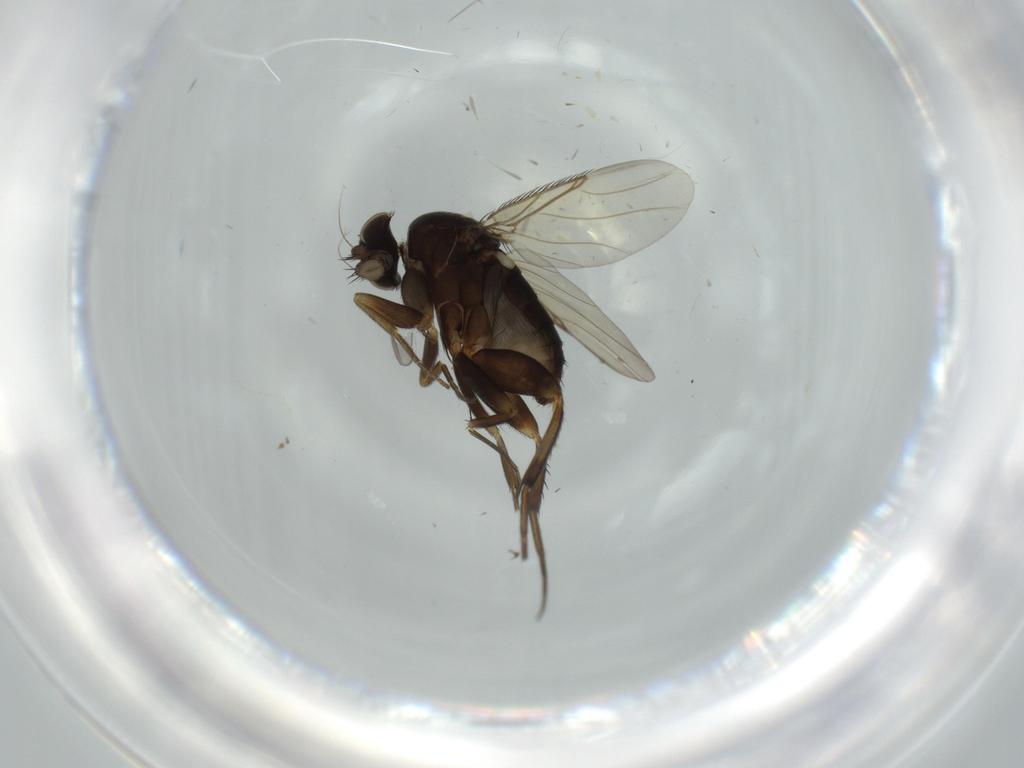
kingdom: Animalia
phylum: Arthropoda
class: Insecta
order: Diptera
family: Phoridae
